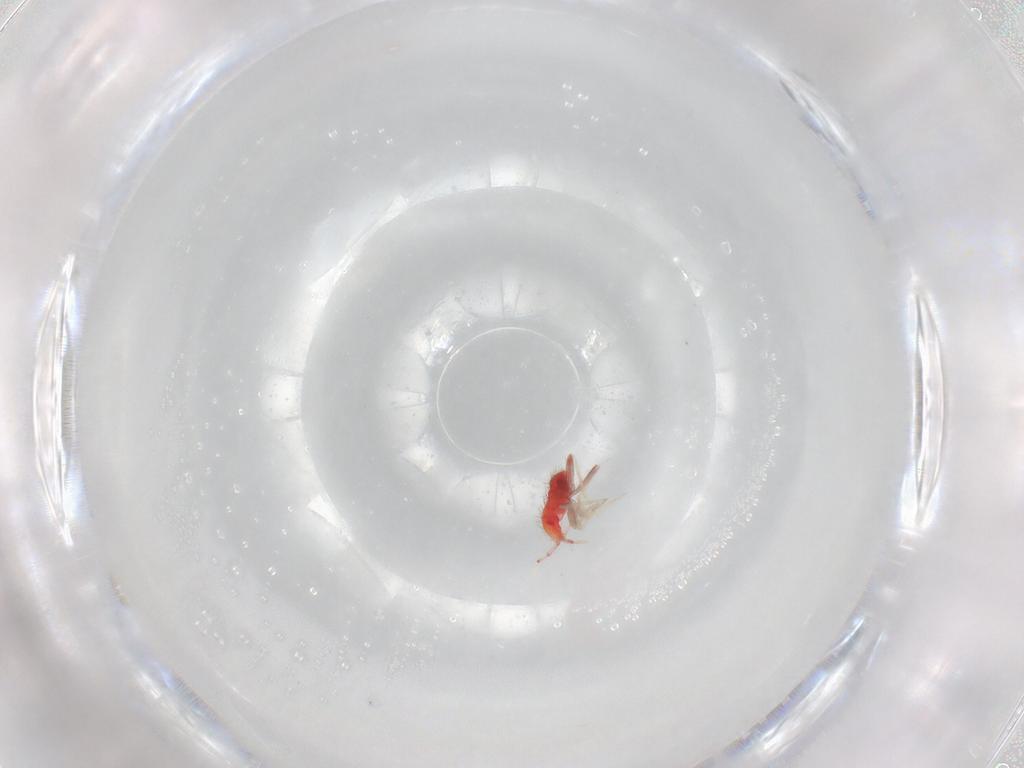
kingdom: Animalia
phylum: Arthropoda
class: Insecta
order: Hemiptera
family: Miridae
